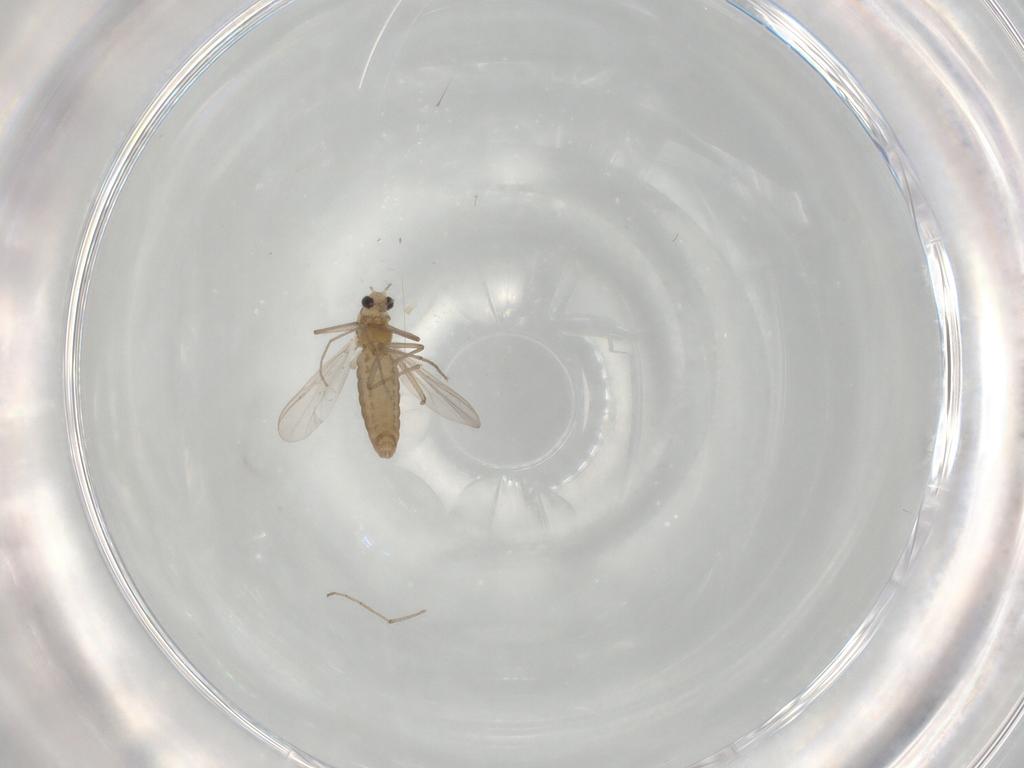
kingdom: Animalia
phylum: Arthropoda
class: Insecta
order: Diptera
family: Chironomidae
